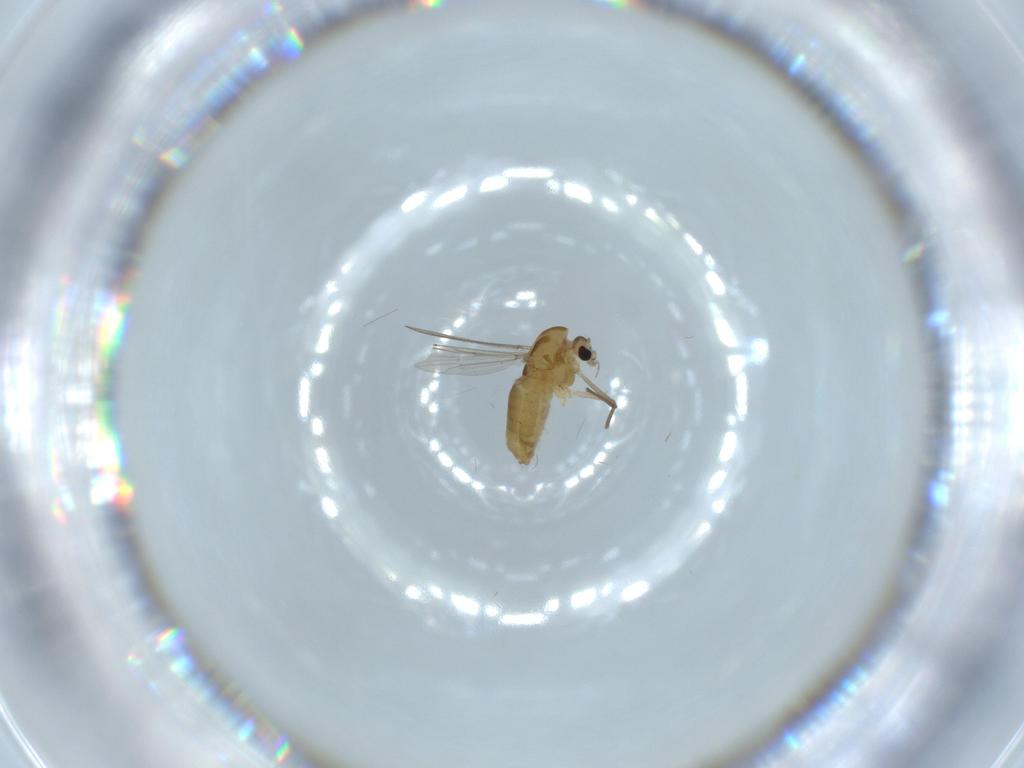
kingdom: Animalia
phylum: Arthropoda
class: Insecta
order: Diptera
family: Chironomidae
